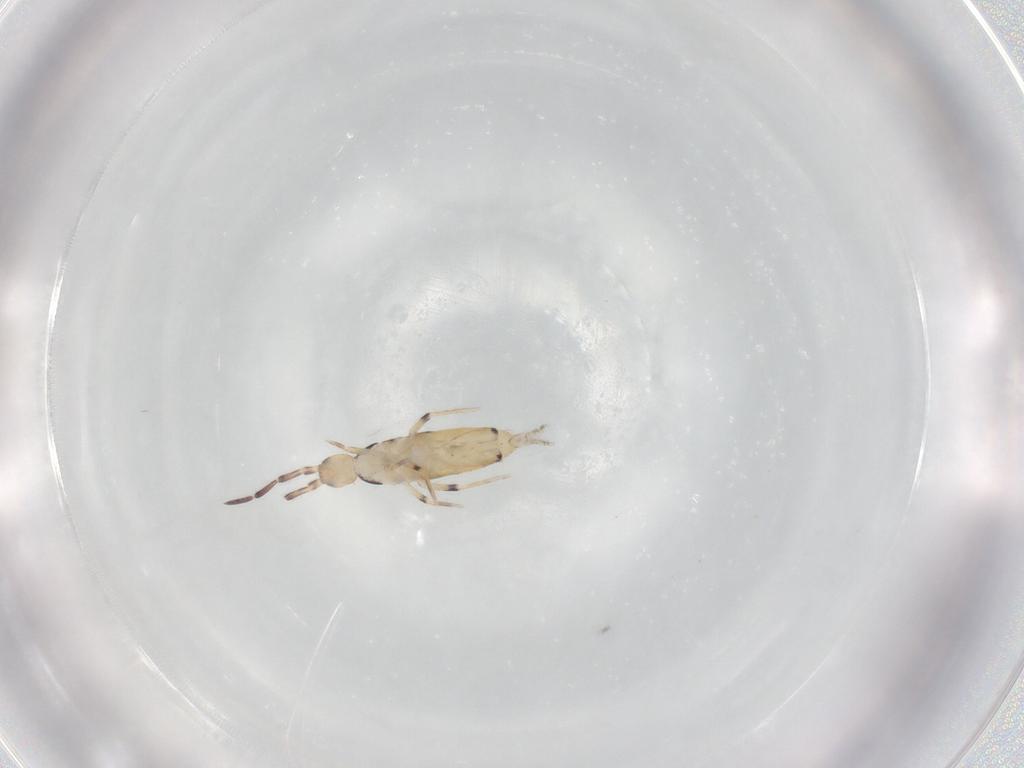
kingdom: Animalia
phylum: Arthropoda
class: Collembola
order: Entomobryomorpha
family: Entomobryidae
